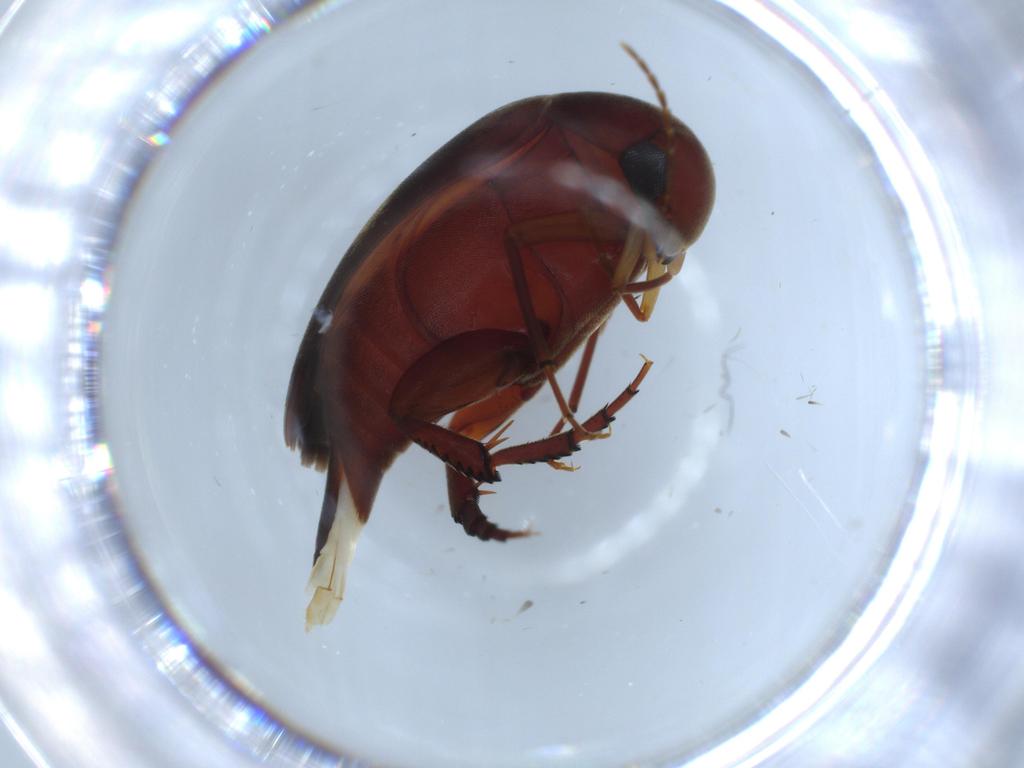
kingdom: Animalia
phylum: Arthropoda
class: Insecta
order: Coleoptera
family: Mordellidae
